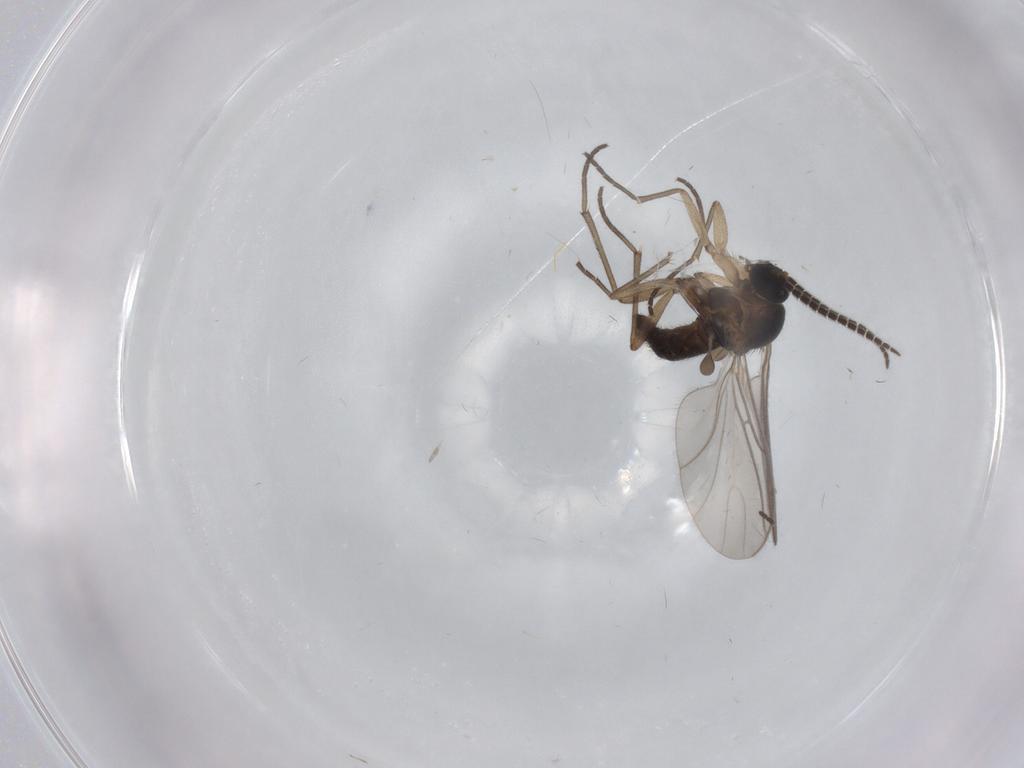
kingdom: Animalia
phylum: Arthropoda
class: Insecta
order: Diptera
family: Sciaridae
